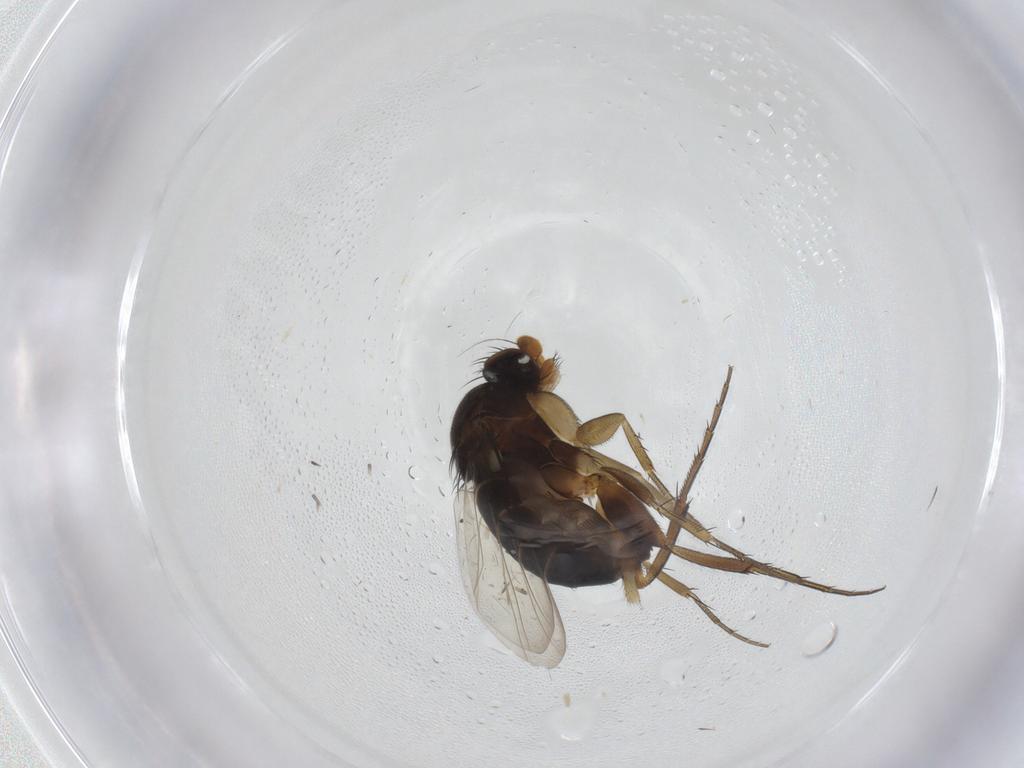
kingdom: Animalia
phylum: Arthropoda
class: Insecta
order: Diptera
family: Phoridae
